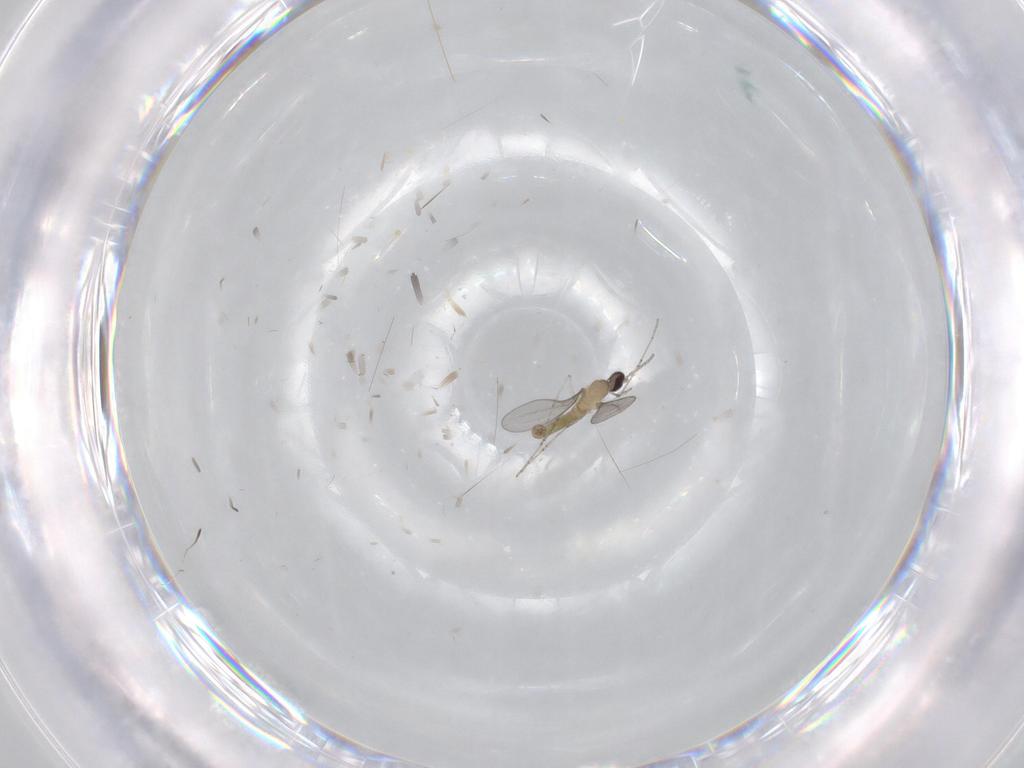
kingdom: Animalia
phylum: Arthropoda
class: Insecta
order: Diptera
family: Cecidomyiidae
